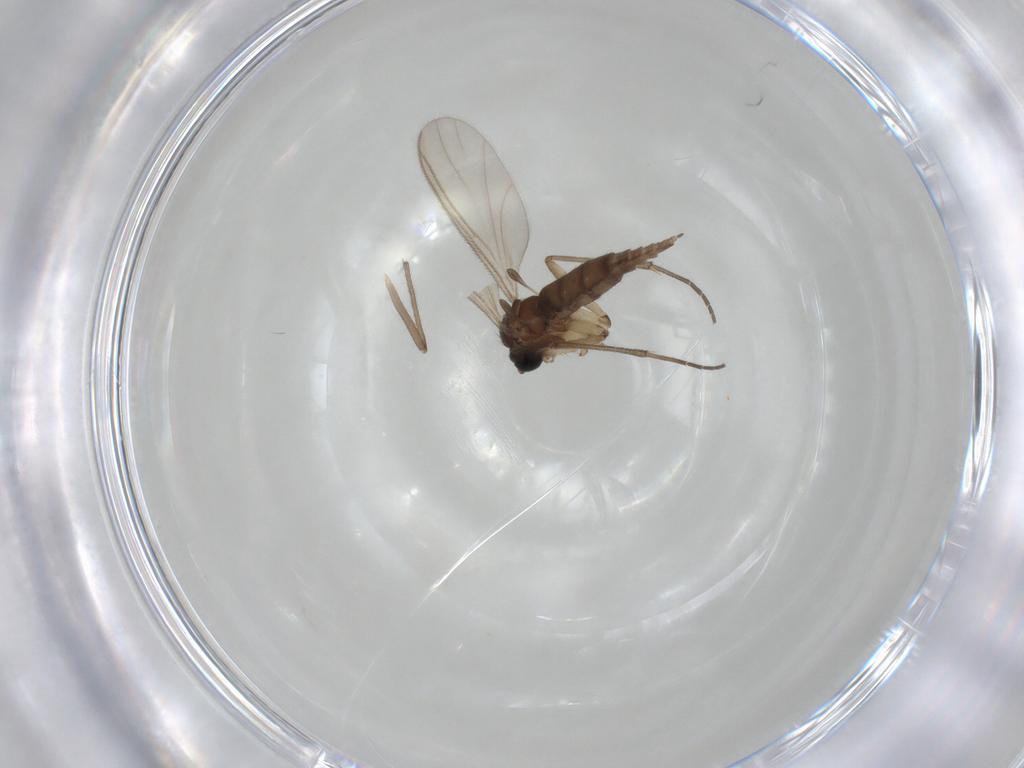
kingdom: Animalia
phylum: Arthropoda
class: Insecta
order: Diptera
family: Sciaridae
